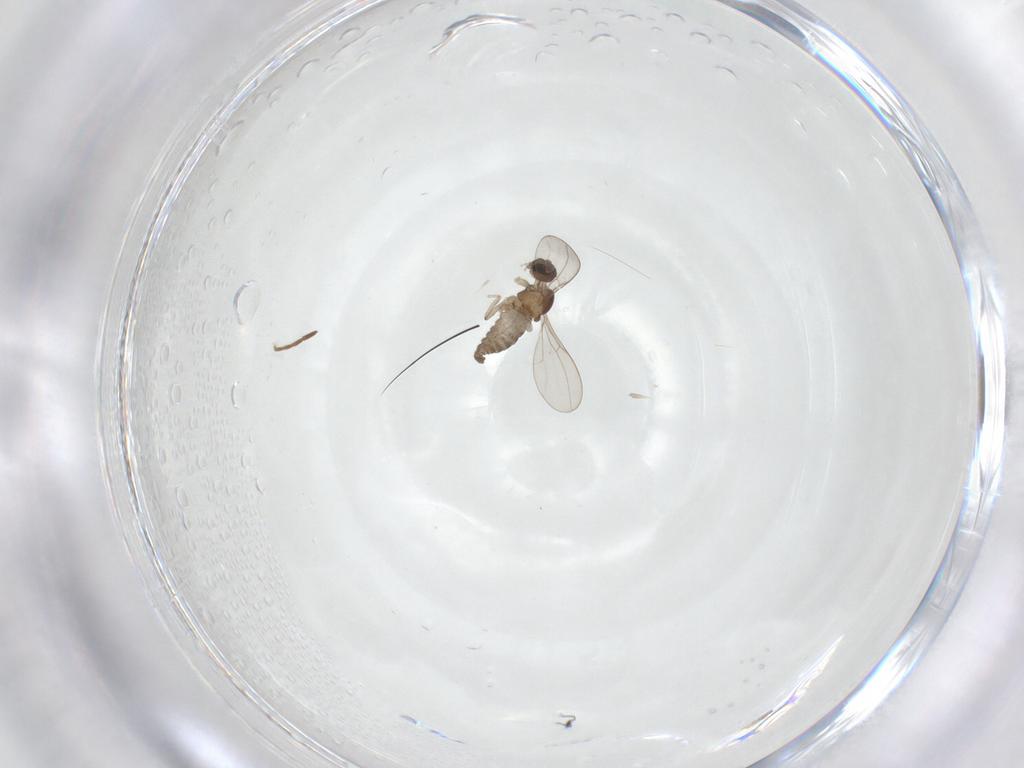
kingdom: Animalia
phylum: Arthropoda
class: Insecta
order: Diptera
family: Cecidomyiidae
